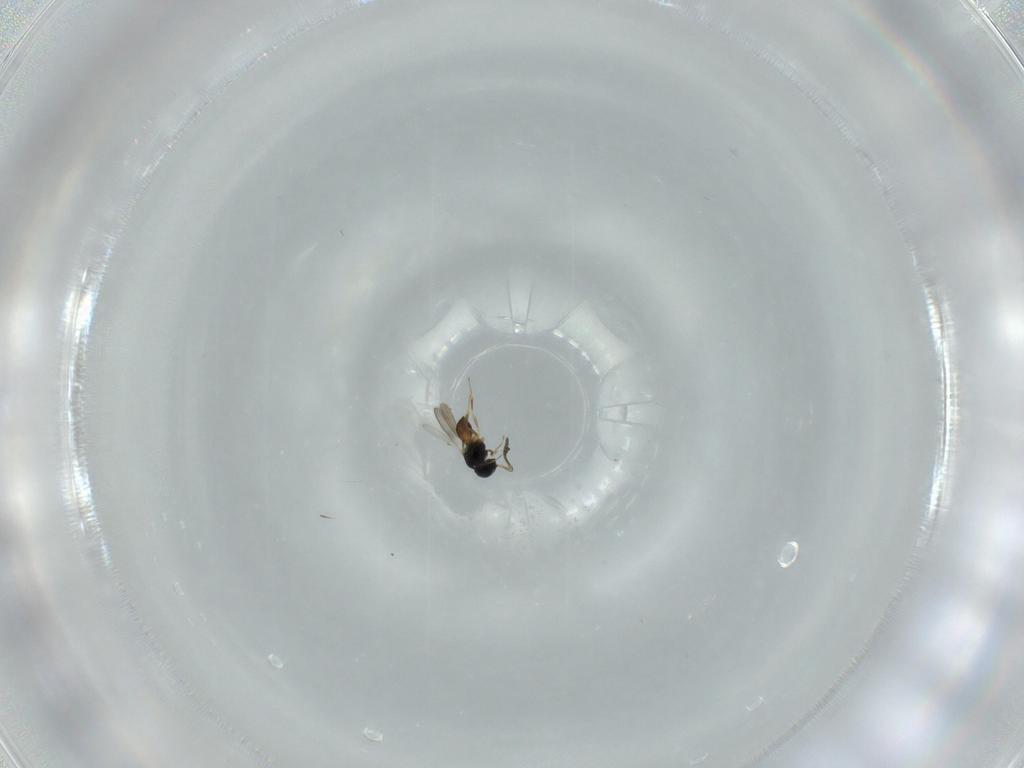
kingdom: Animalia
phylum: Arthropoda
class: Insecta
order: Hymenoptera
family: Scelionidae
